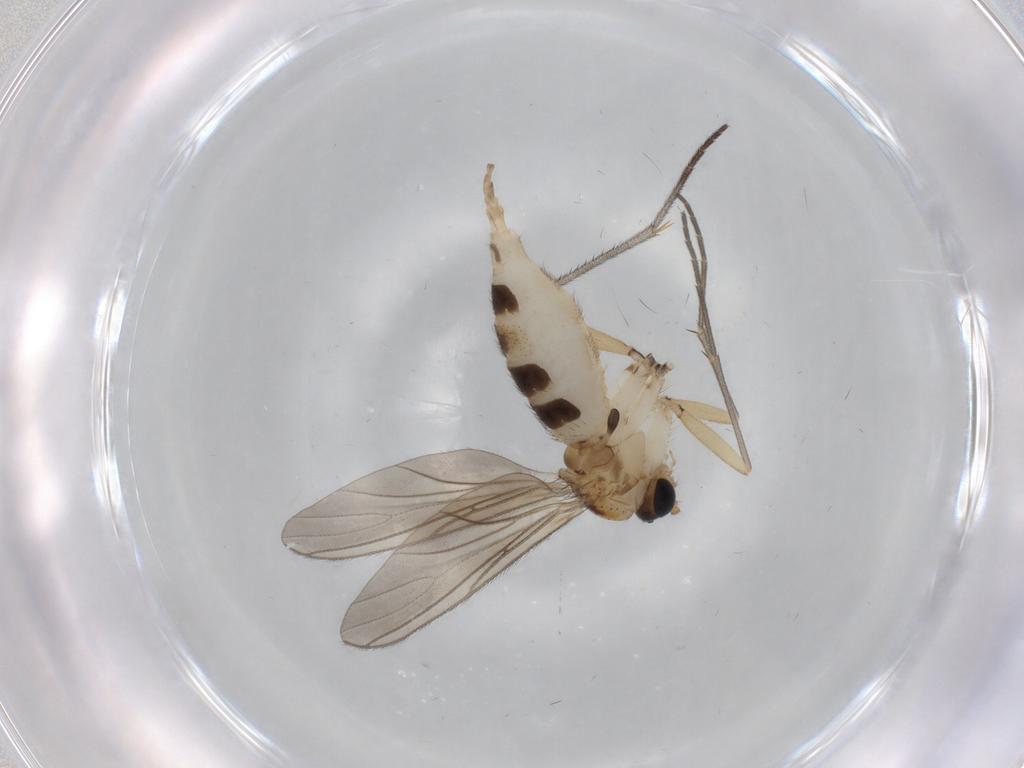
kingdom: Animalia
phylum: Arthropoda
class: Insecta
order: Diptera
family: Sciaridae
